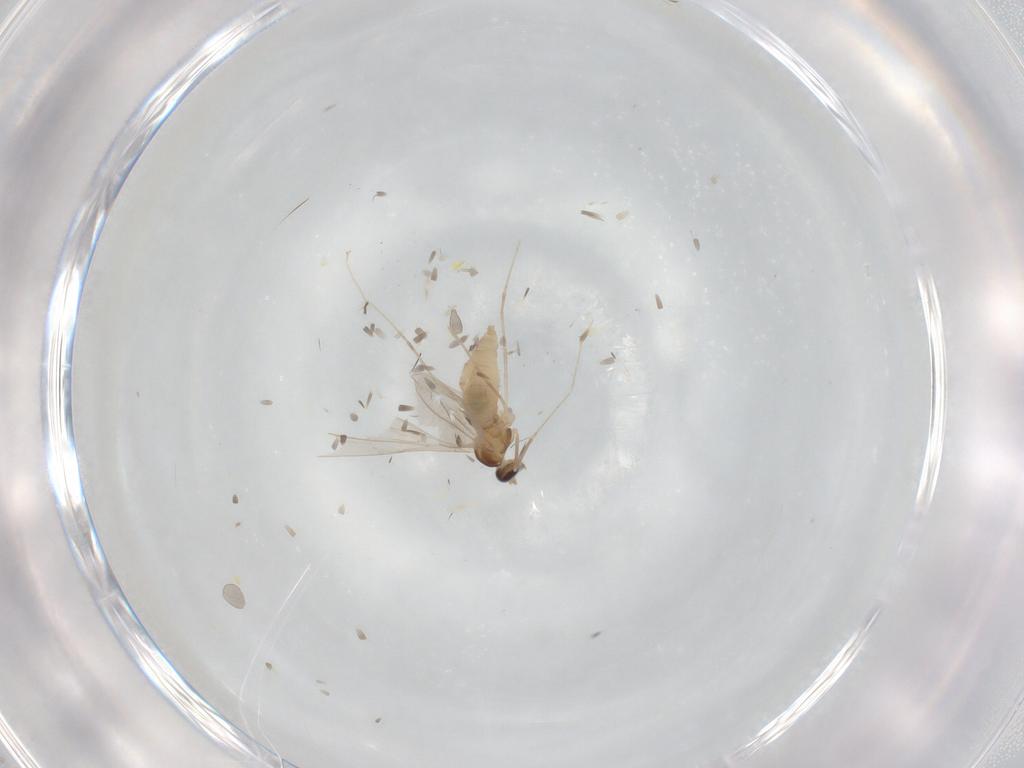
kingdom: Animalia
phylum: Arthropoda
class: Insecta
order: Diptera
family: Cecidomyiidae
